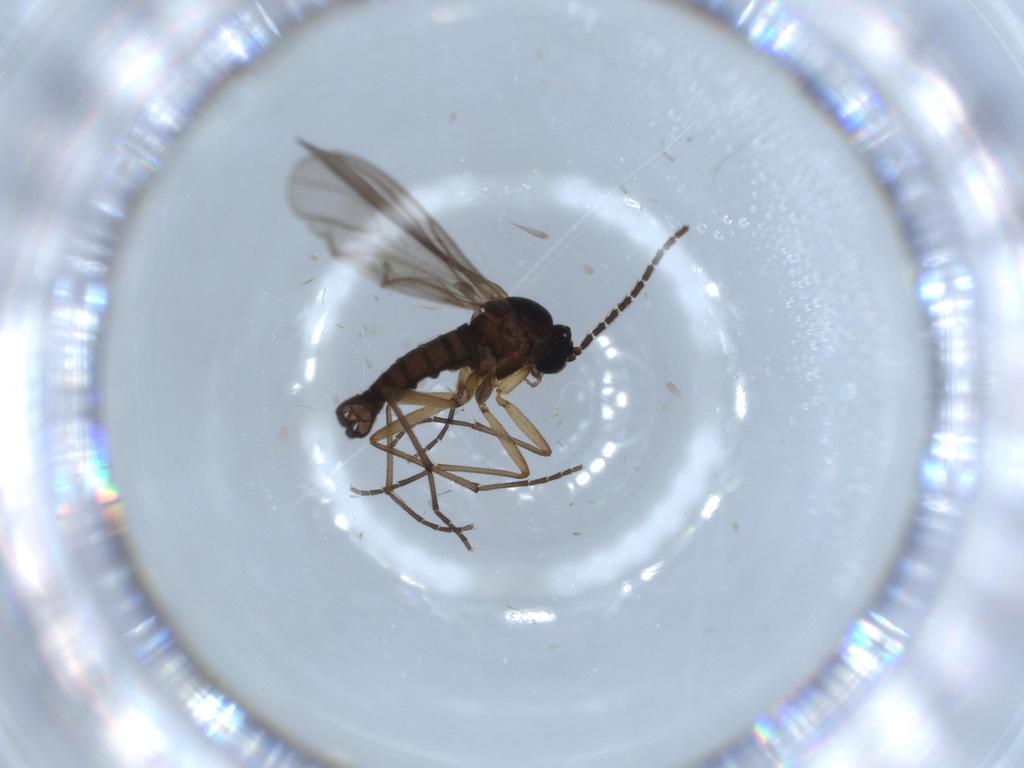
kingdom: Animalia
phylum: Arthropoda
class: Insecta
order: Diptera
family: Sciaridae
